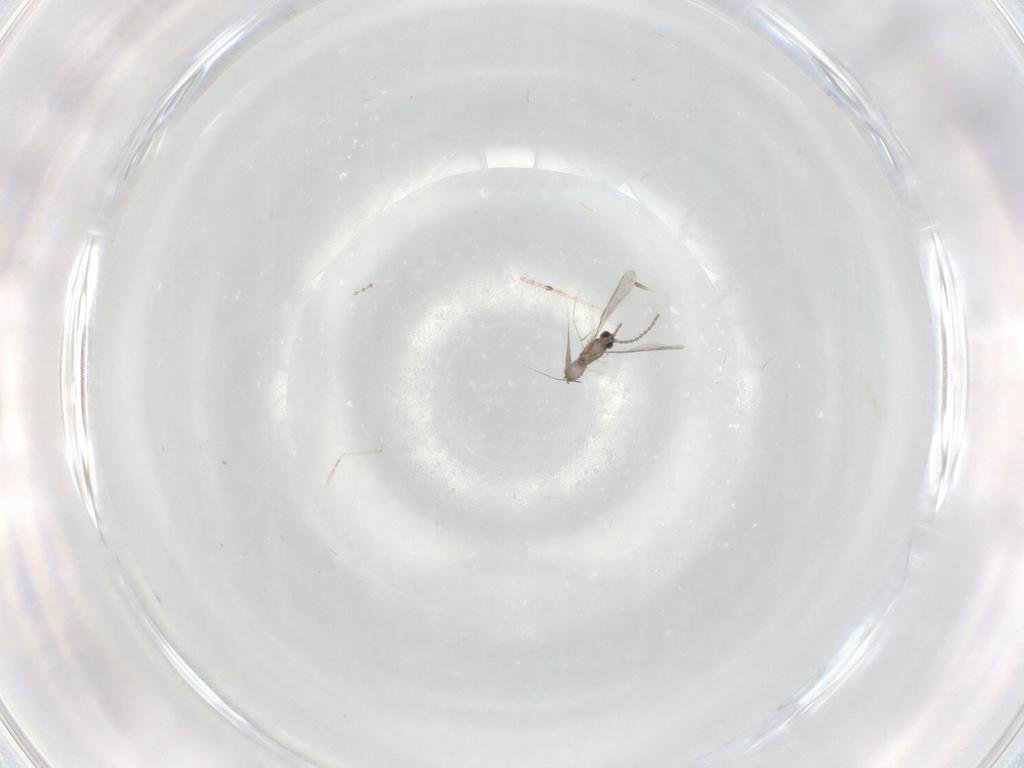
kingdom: Animalia
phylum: Arthropoda
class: Insecta
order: Diptera
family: Cecidomyiidae
